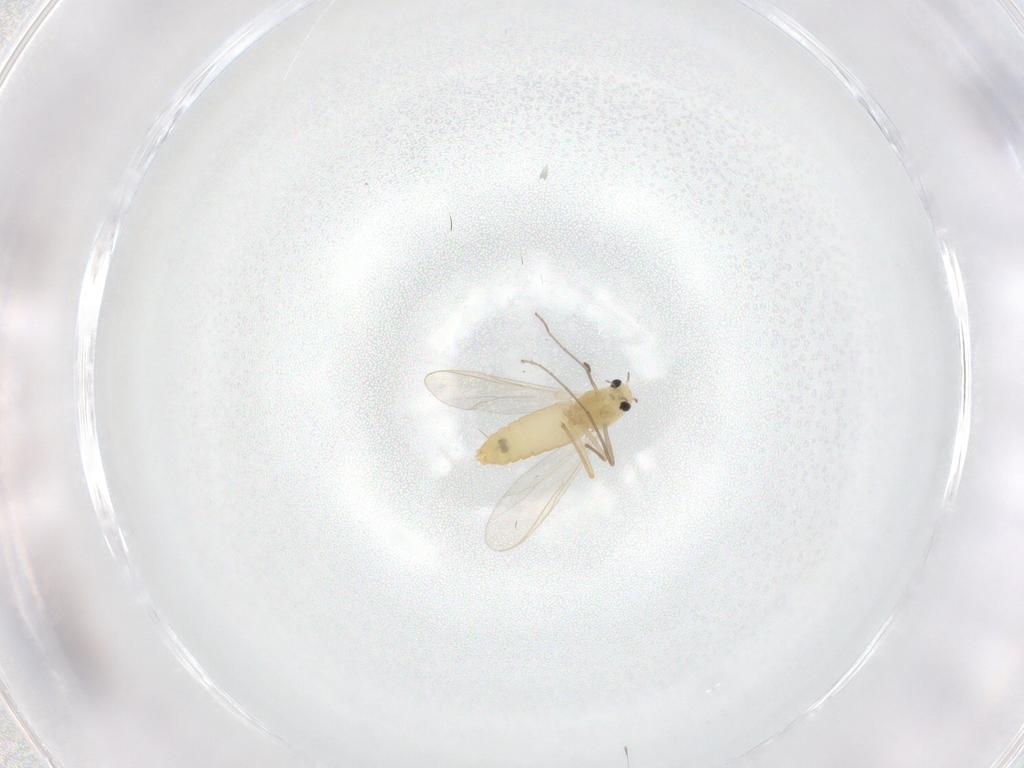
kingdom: Animalia
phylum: Arthropoda
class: Insecta
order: Diptera
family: Chironomidae
